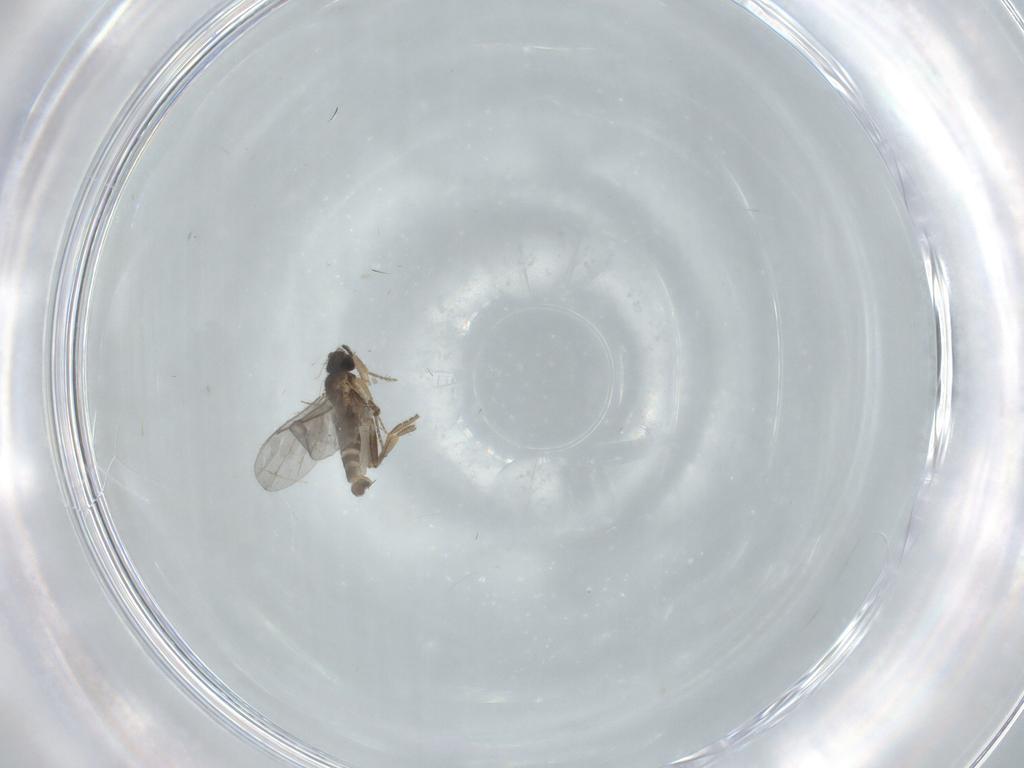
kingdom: Animalia
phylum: Arthropoda
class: Insecta
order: Diptera
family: Chironomidae
